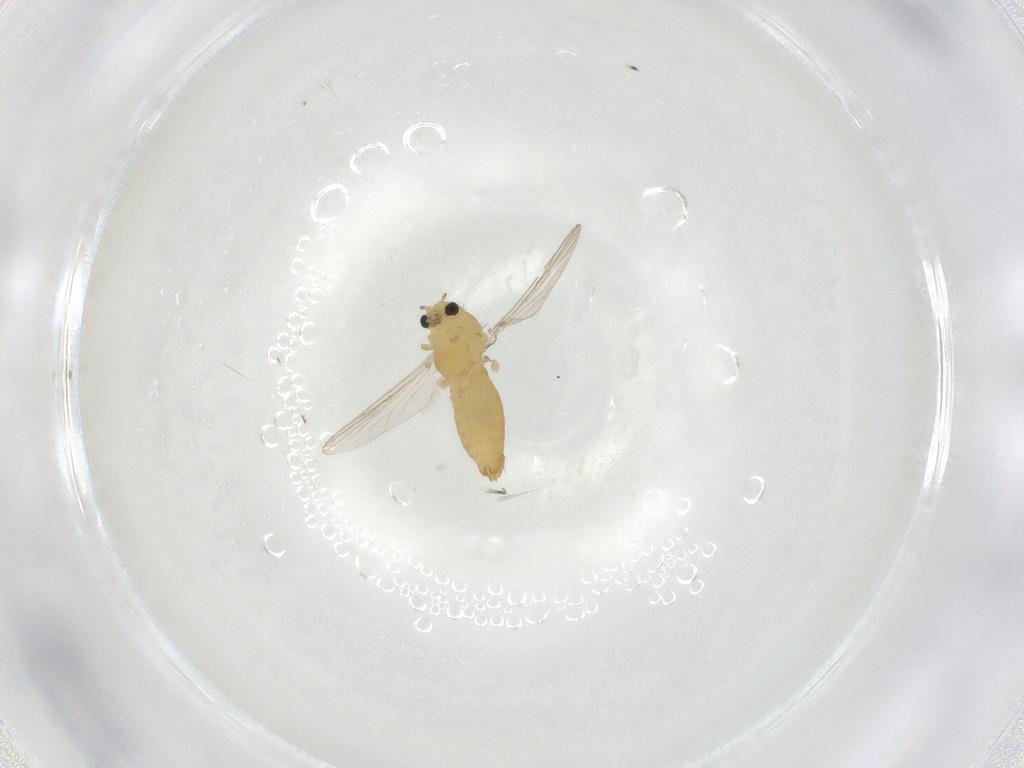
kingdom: Animalia
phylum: Arthropoda
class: Insecta
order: Diptera
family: Chironomidae
